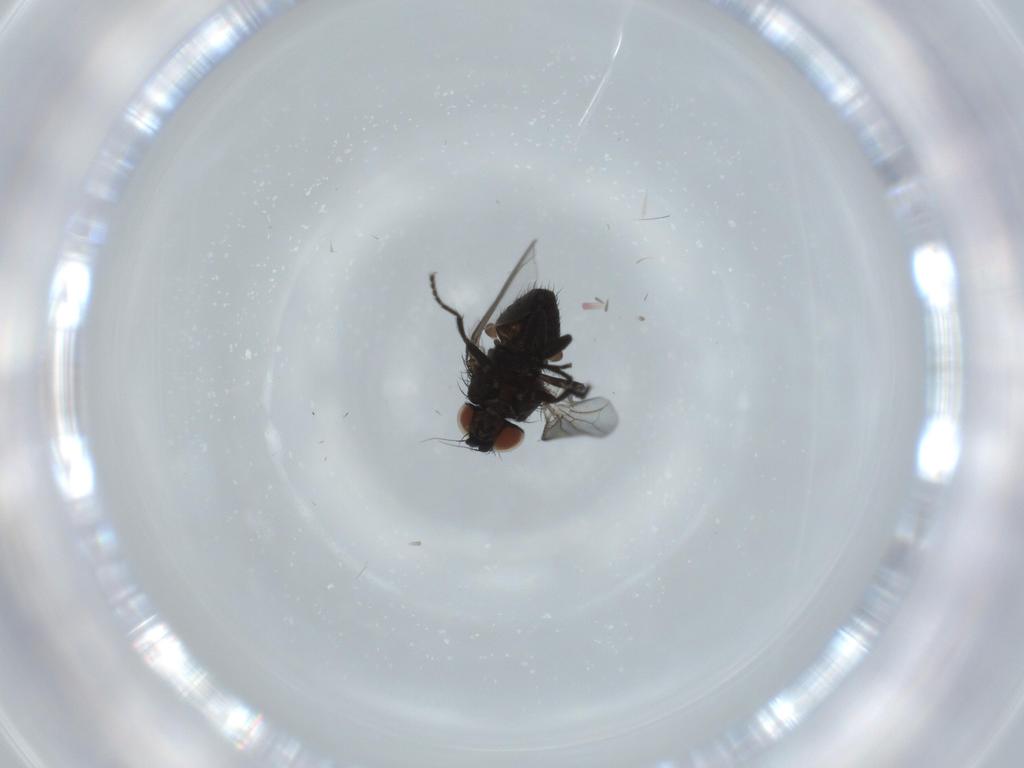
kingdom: Animalia
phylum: Arthropoda
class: Insecta
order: Diptera
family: Milichiidae
